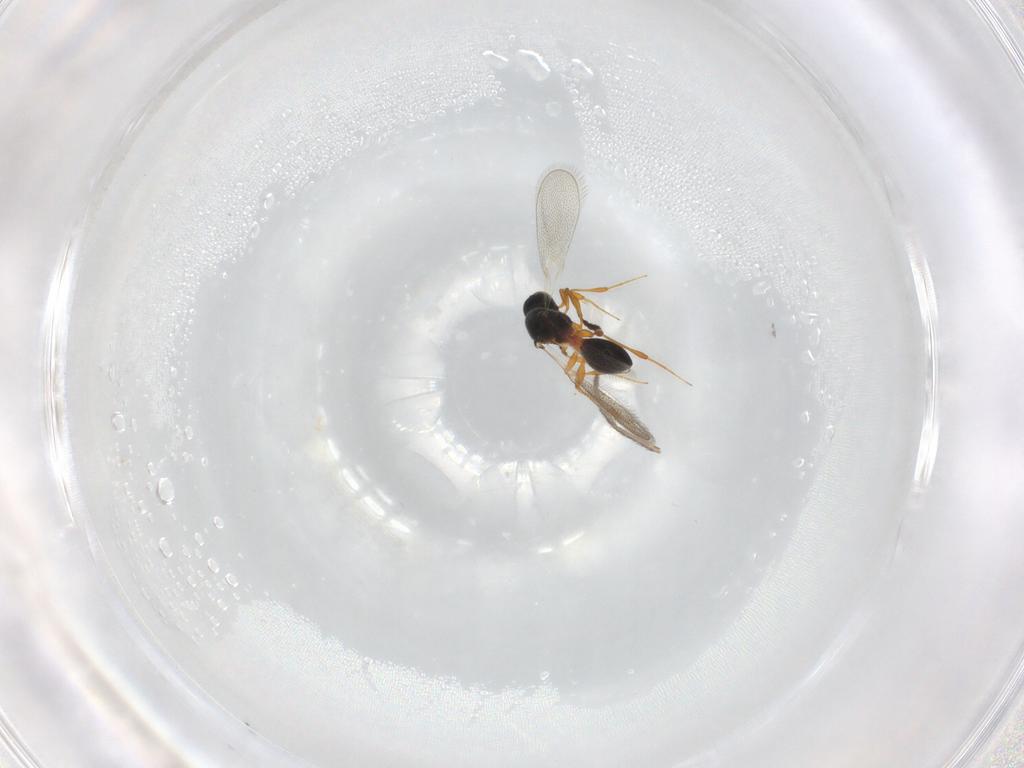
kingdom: Animalia
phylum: Arthropoda
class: Insecta
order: Hymenoptera
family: Platygastridae
